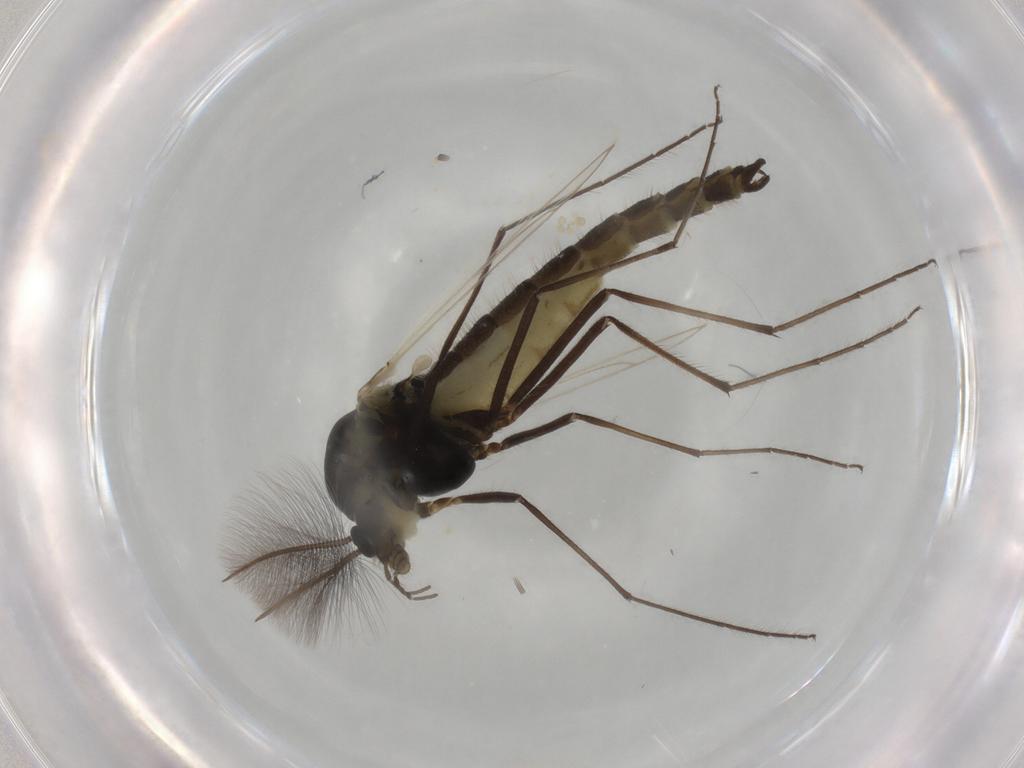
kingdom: Animalia
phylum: Arthropoda
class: Insecta
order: Diptera
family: Chironomidae
